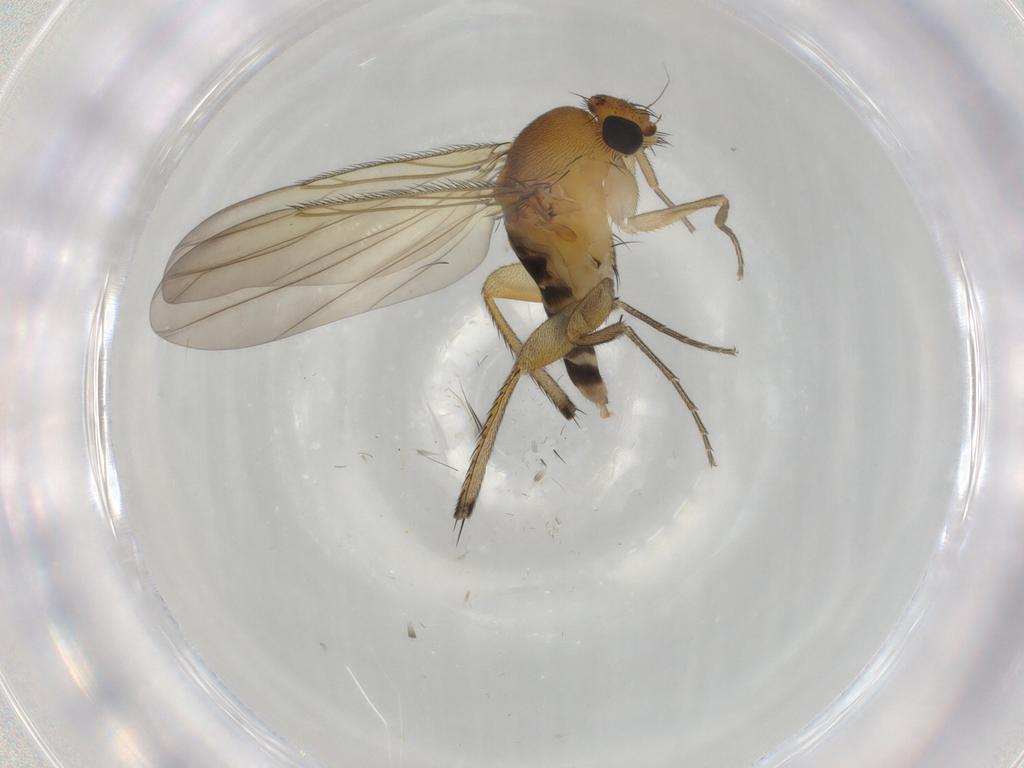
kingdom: Animalia
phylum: Arthropoda
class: Insecta
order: Diptera
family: Phoridae
